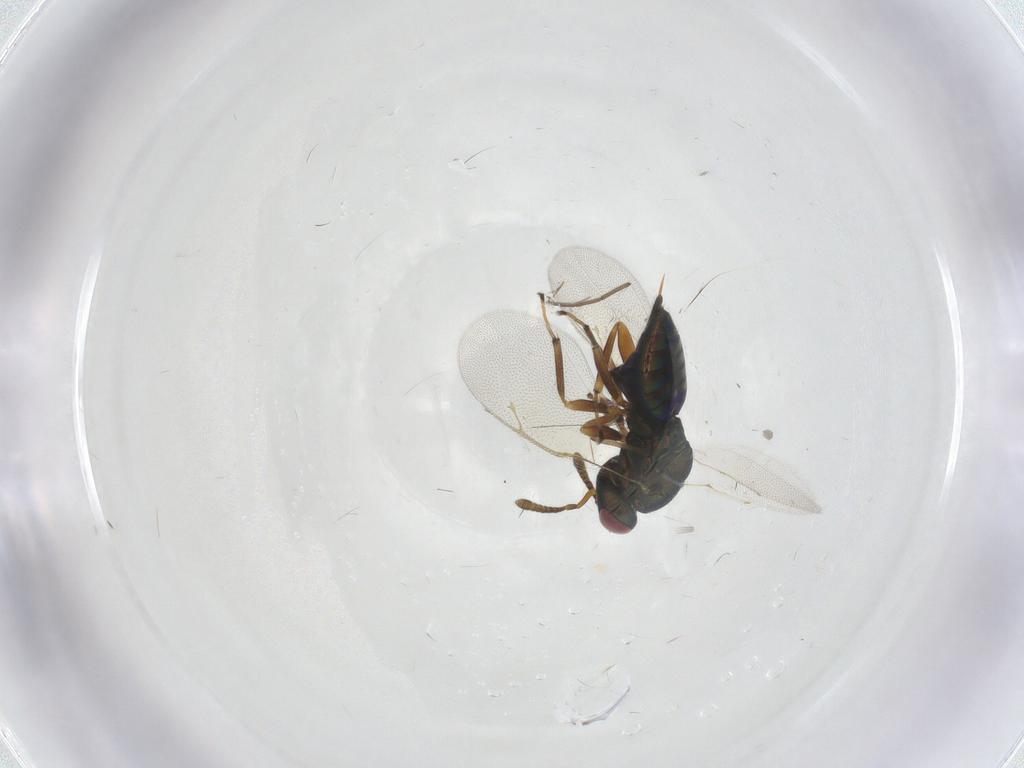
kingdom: Animalia
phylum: Arthropoda
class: Insecta
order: Hymenoptera
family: Pteromalidae
